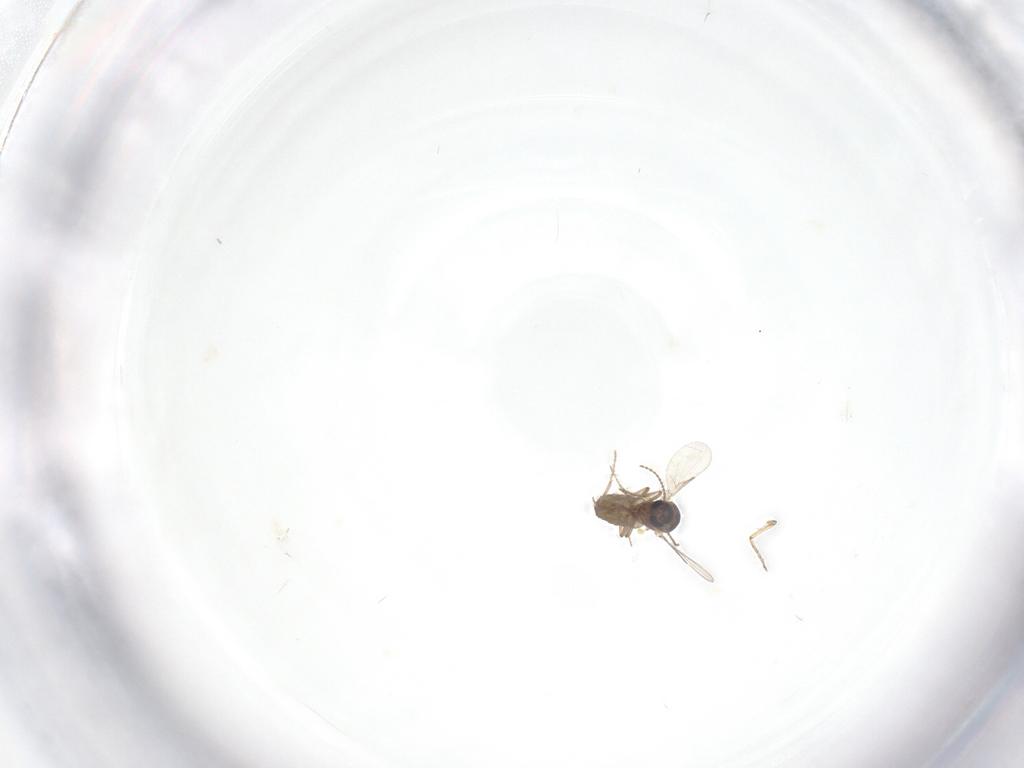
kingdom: Animalia
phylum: Arthropoda
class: Insecta
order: Diptera
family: Ceratopogonidae
